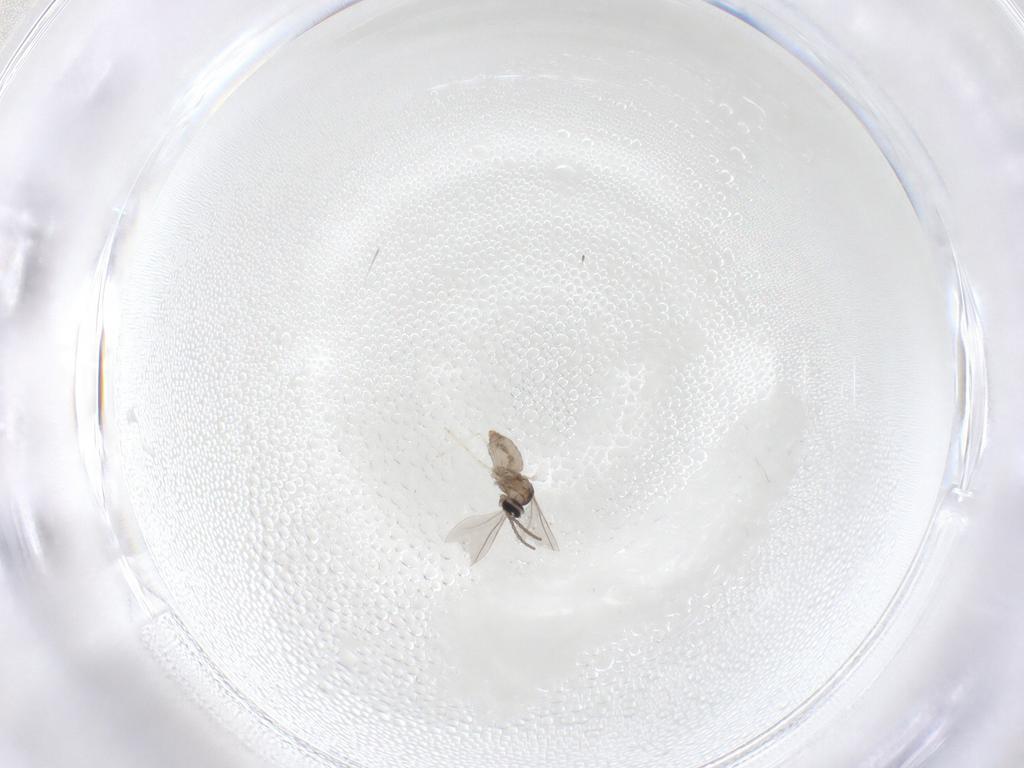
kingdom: Animalia
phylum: Arthropoda
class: Insecta
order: Diptera
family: Cecidomyiidae
